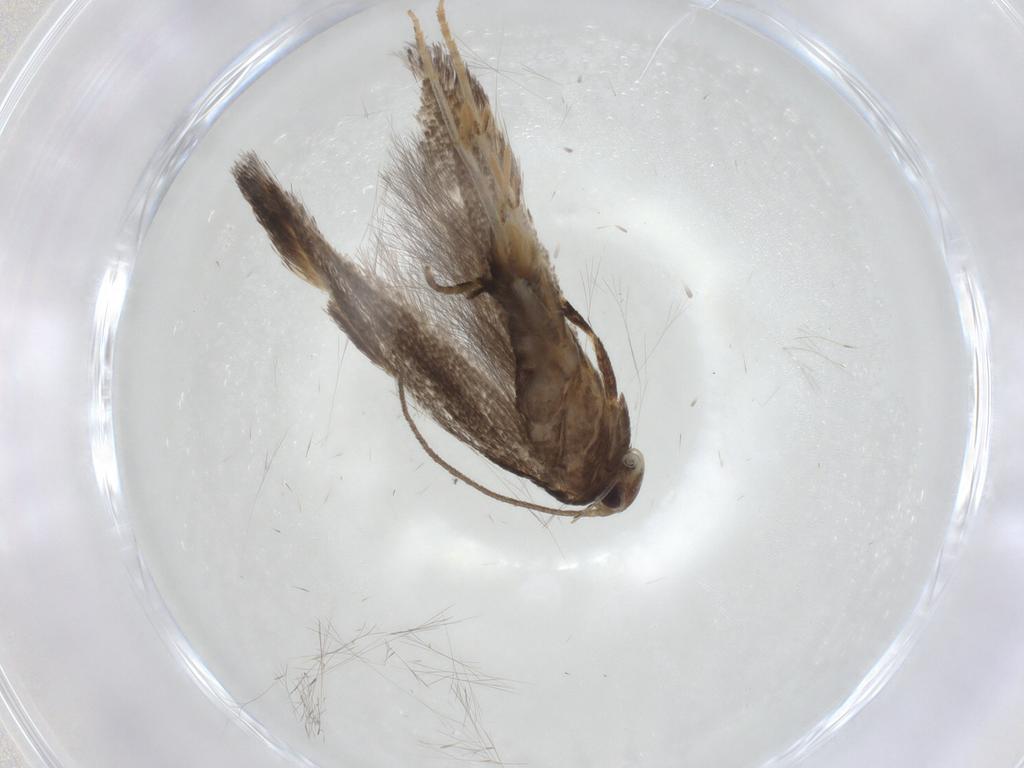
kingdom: Animalia
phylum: Arthropoda
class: Insecta
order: Lepidoptera
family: Elachistidae
